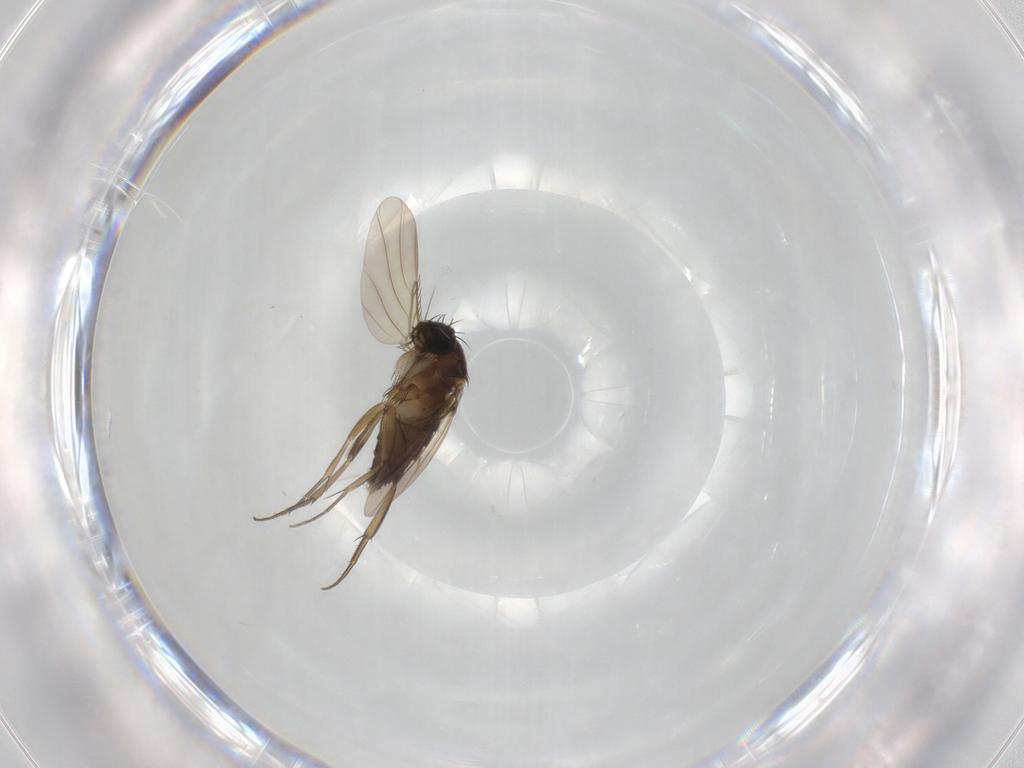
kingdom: Animalia
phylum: Arthropoda
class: Insecta
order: Diptera
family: Phoridae
